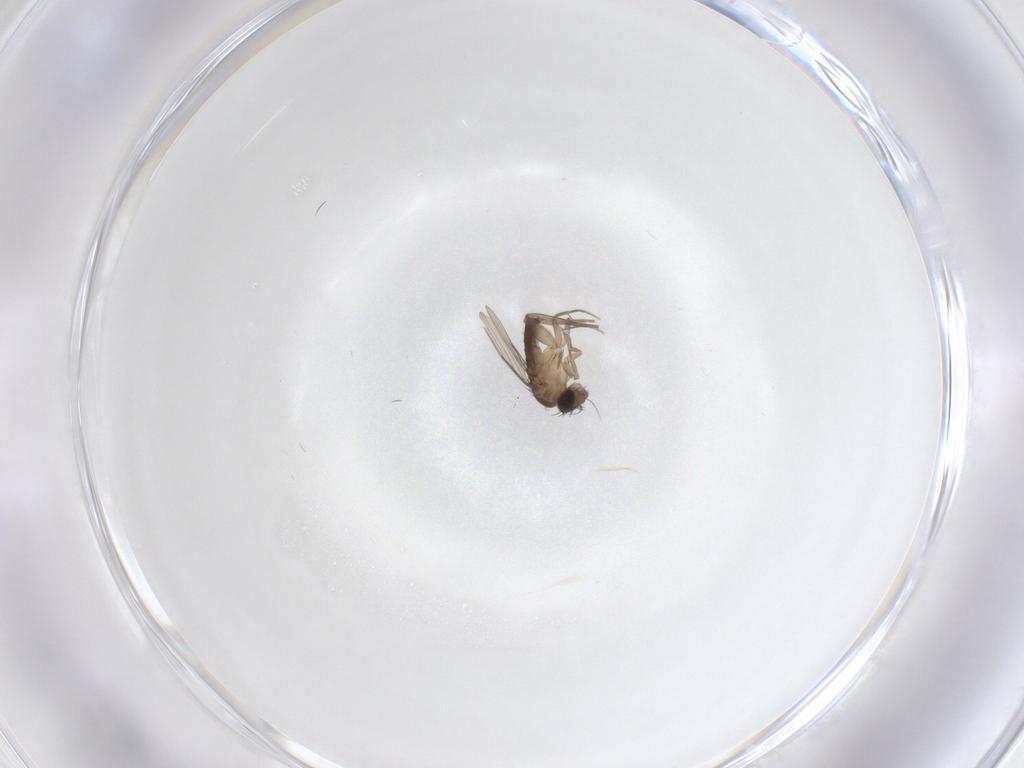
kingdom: Animalia
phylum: Arthropoda
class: Insecta
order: Diptera
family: Phoridae
